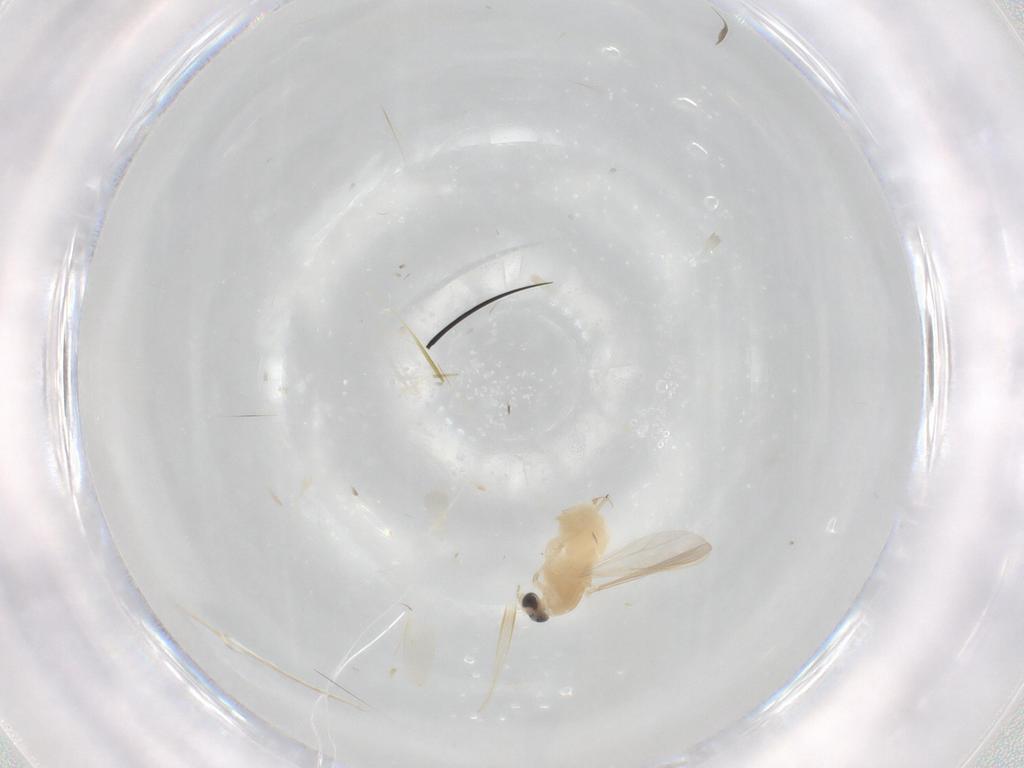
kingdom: Animalia
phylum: Arthropoda
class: Insecta
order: Diptera
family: Chironomidae
